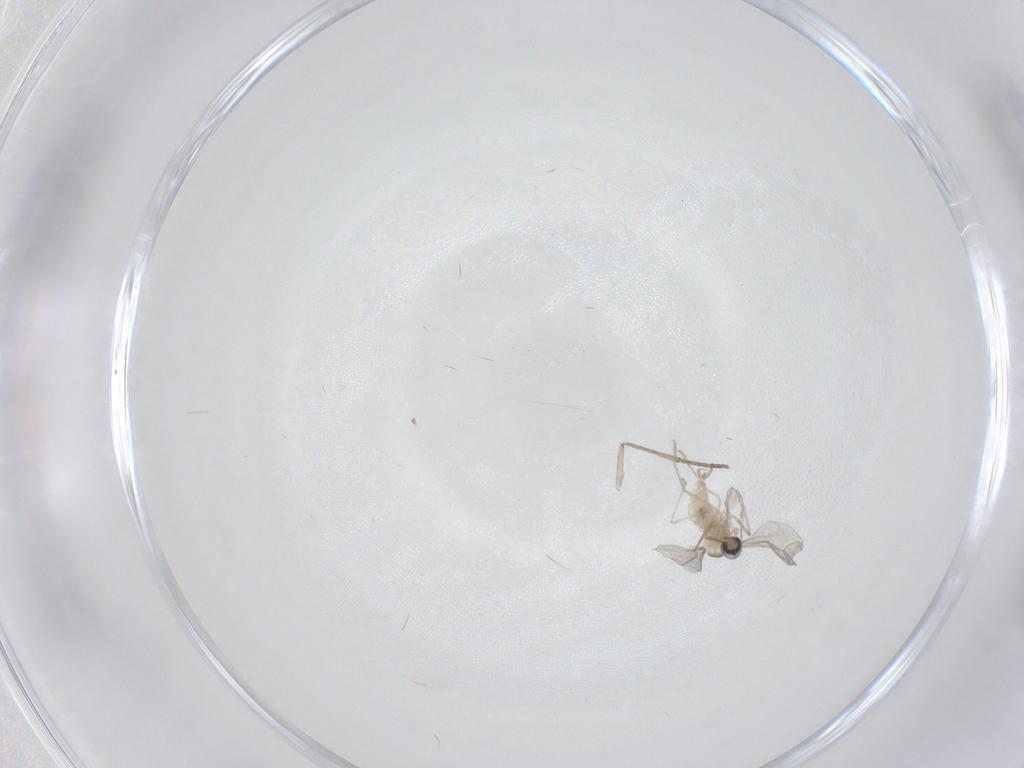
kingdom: Animalia
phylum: Arthropoda
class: Insecta
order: Diptera
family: Psychodidae
